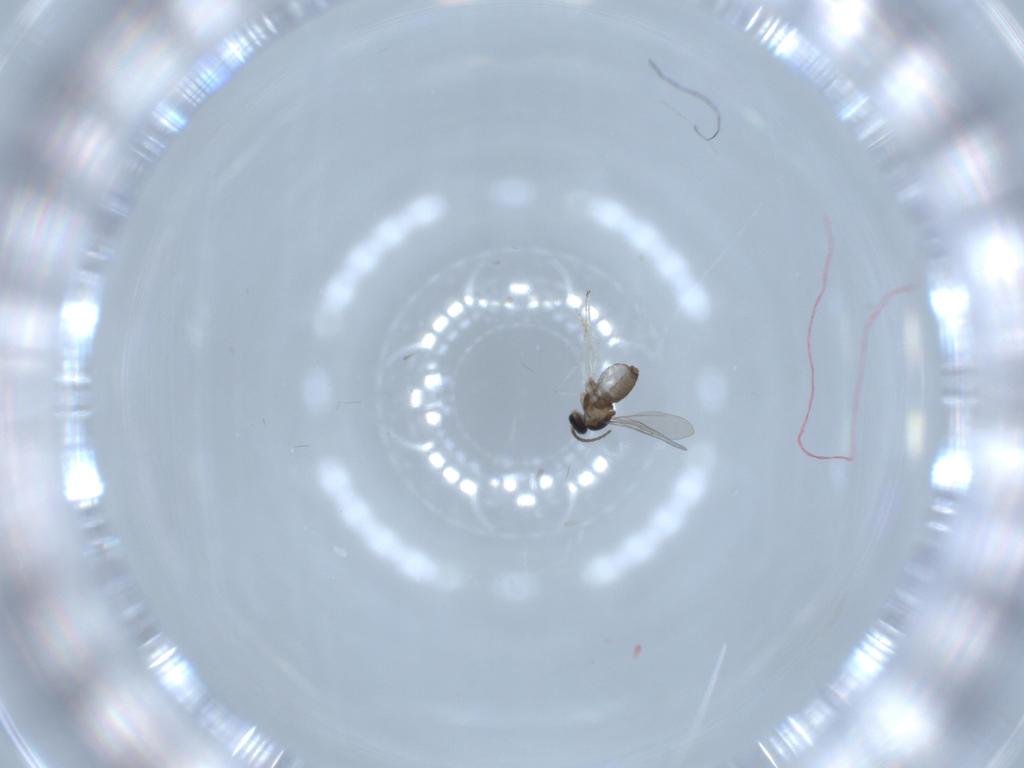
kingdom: Animalia
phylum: Arthropoda
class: Insecta
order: Diptera
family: Cecidomyiidae
